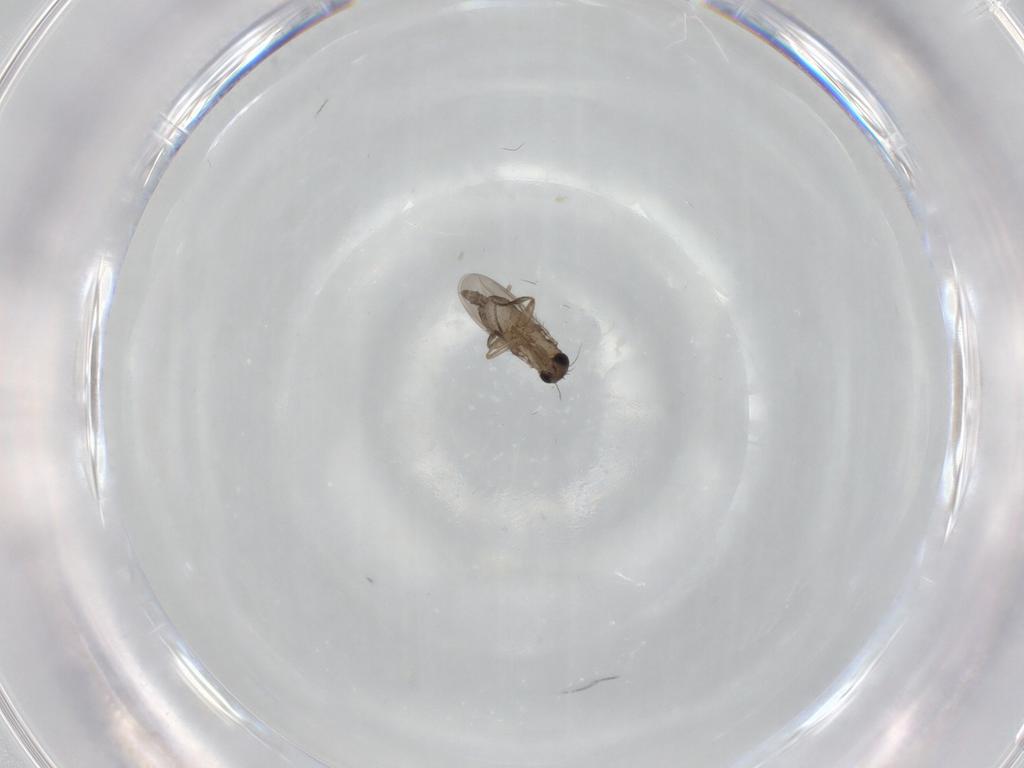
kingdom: Animalia
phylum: Arthropoda
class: Insecta
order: Diptera
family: Phoridae
